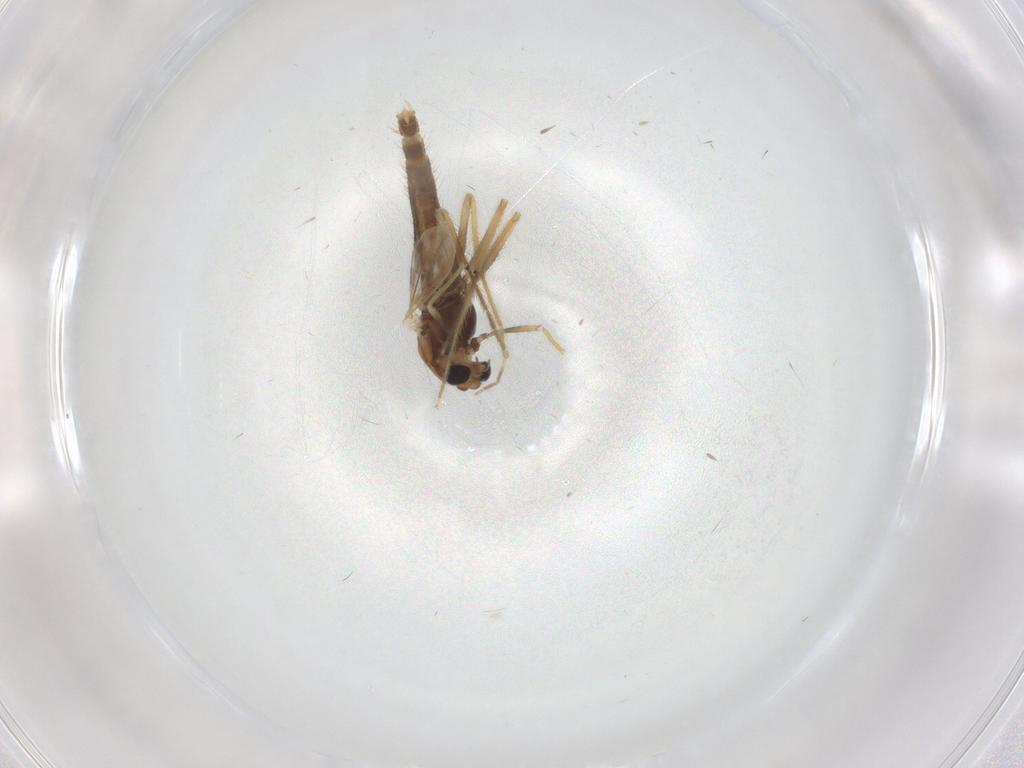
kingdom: Animalia
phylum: Arthropoda
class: Insecta
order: Diptera
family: Chironomidae
